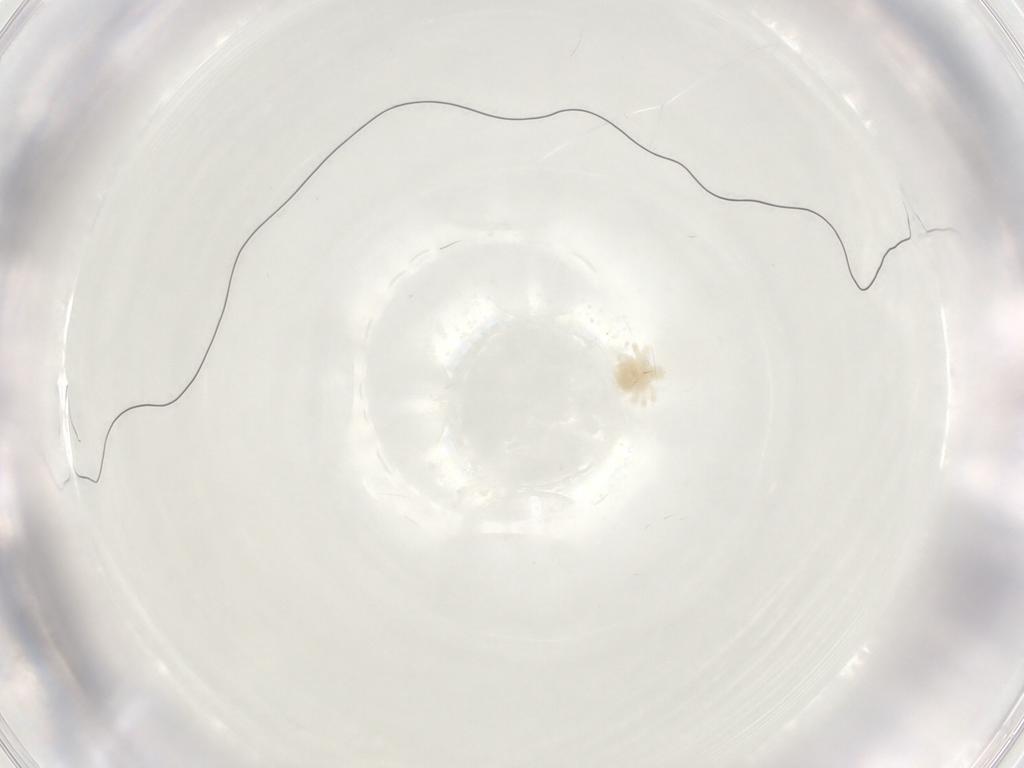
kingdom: Animalia
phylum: Arthropoda
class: Arachnida
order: Trombidiformes
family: Anystidae
